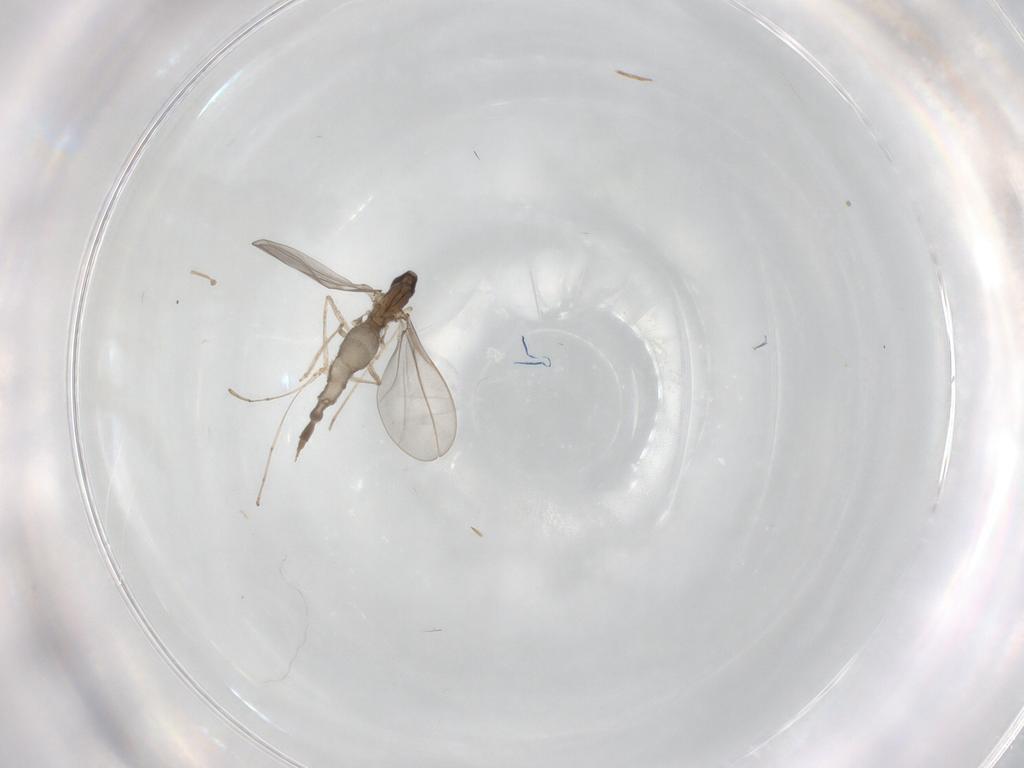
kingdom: Animalia
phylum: Arthropoda
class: Insecta
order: Diptera
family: Cecidomyiidae
